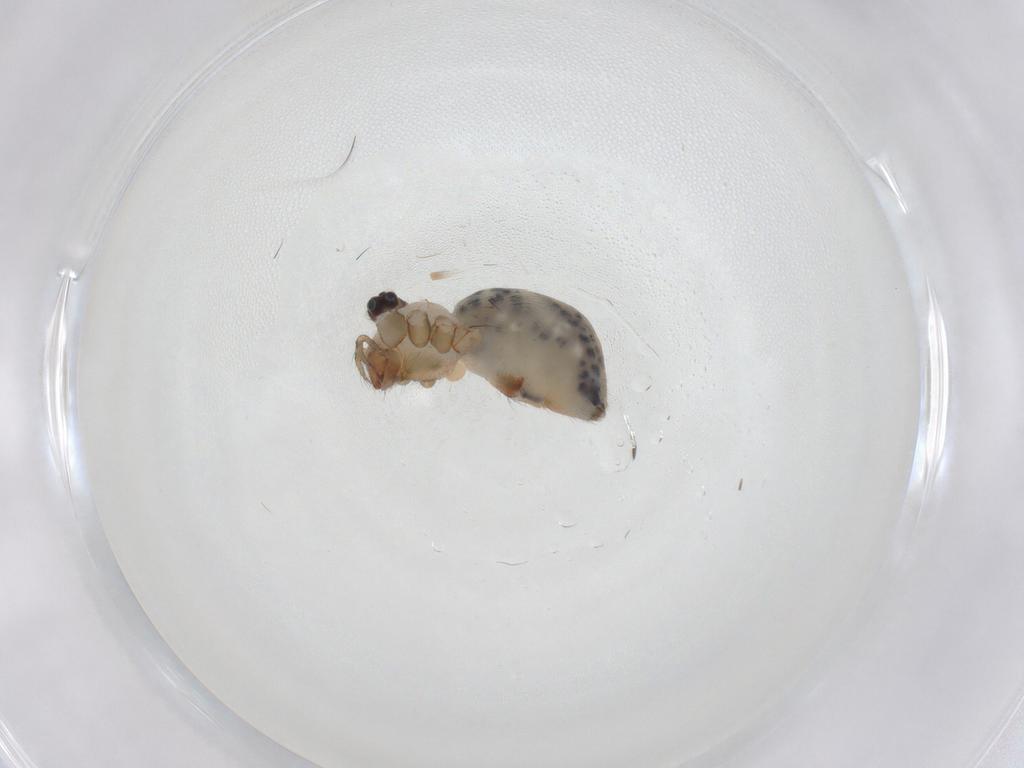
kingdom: Animalia
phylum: Arthropoda
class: Arachnida
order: Araneae
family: Pholcidae
